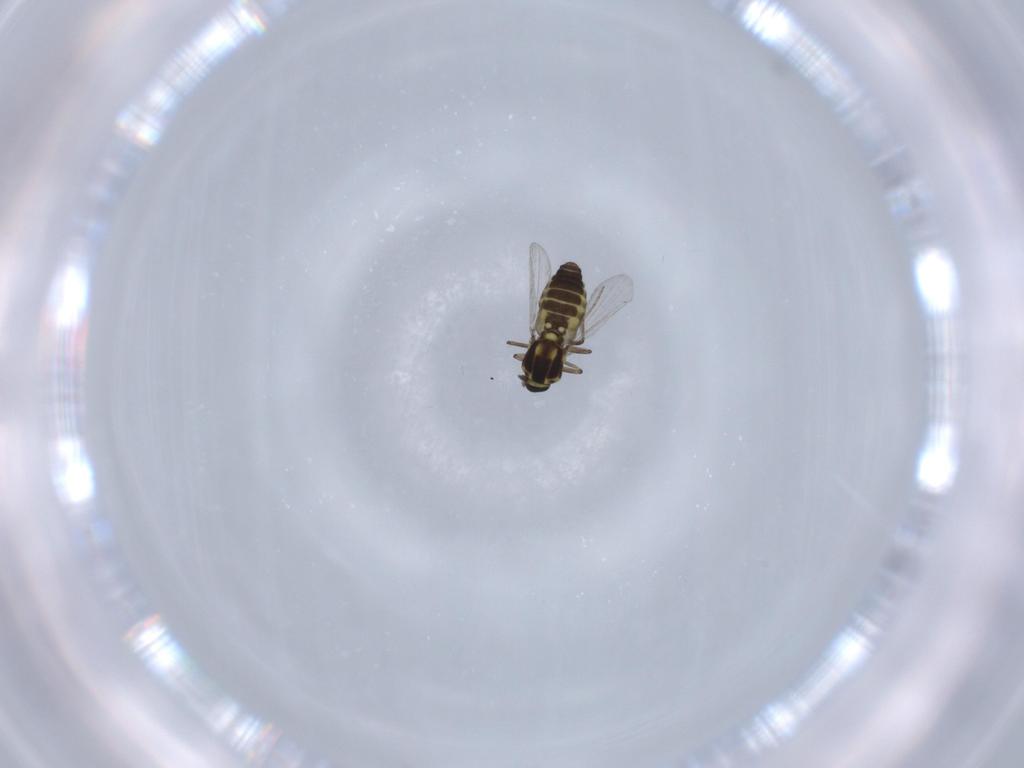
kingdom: Animalia
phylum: Arthropoda
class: Insecta
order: Diptera
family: Ceratopogonidae
